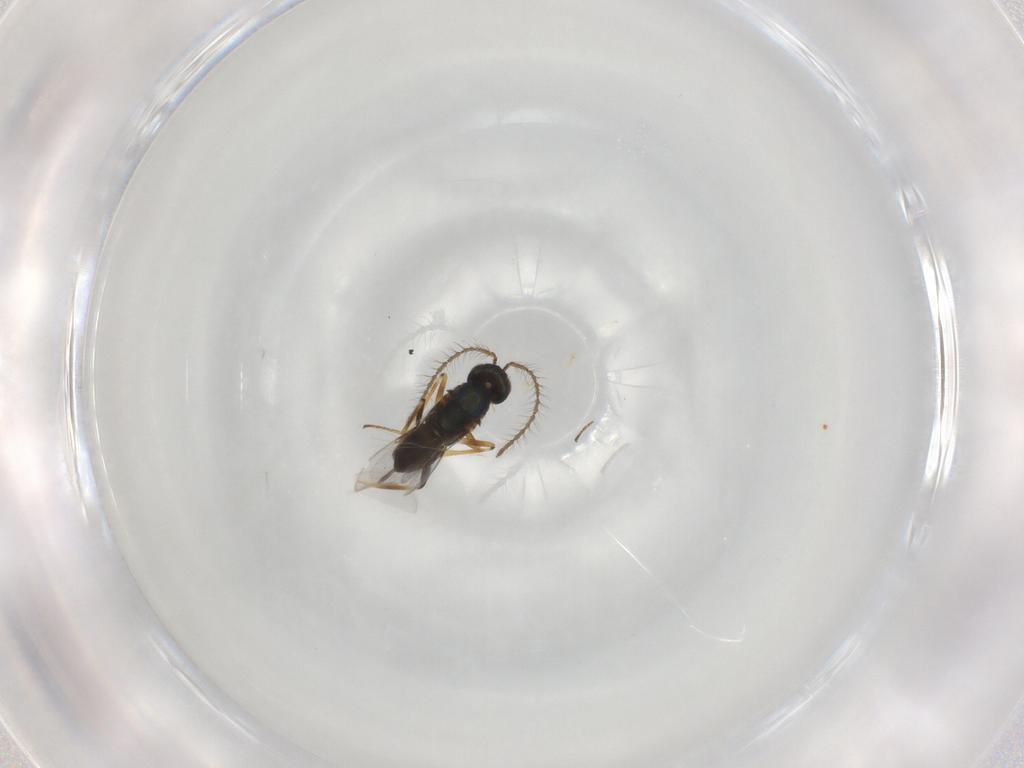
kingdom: Animalia
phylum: Arthropoda
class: Insecta
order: Hymenoptera
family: Encyrtidae
